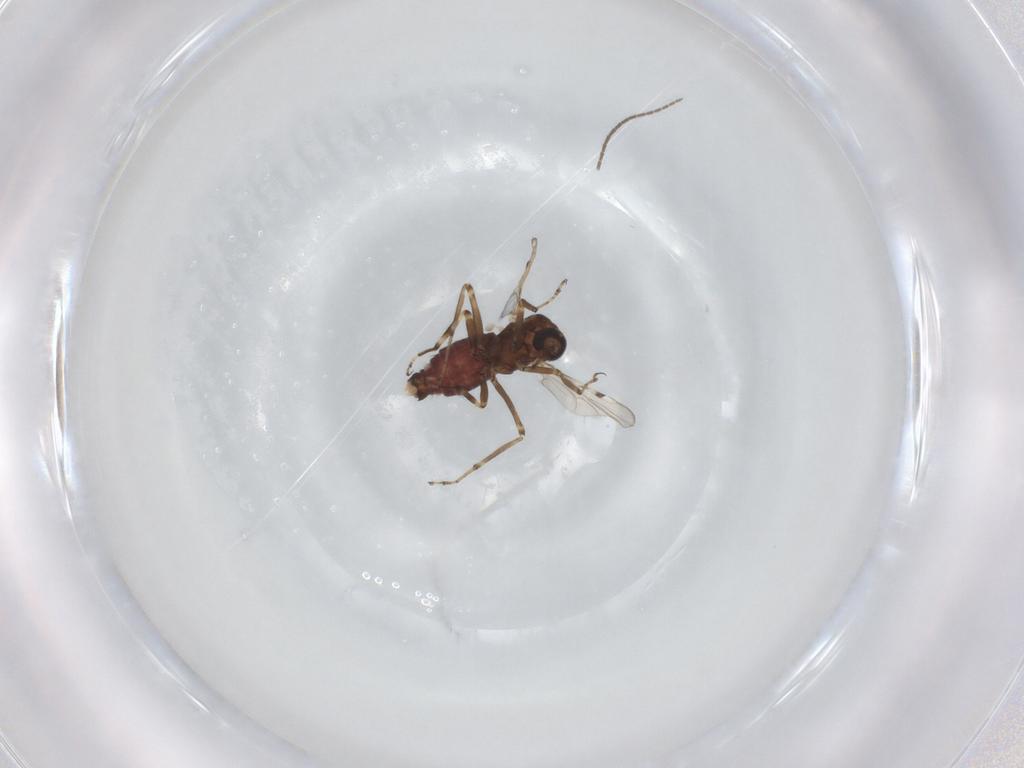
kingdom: Animalia
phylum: Arthropoda
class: Insecta
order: Diptera
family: Ceratopogonidae
